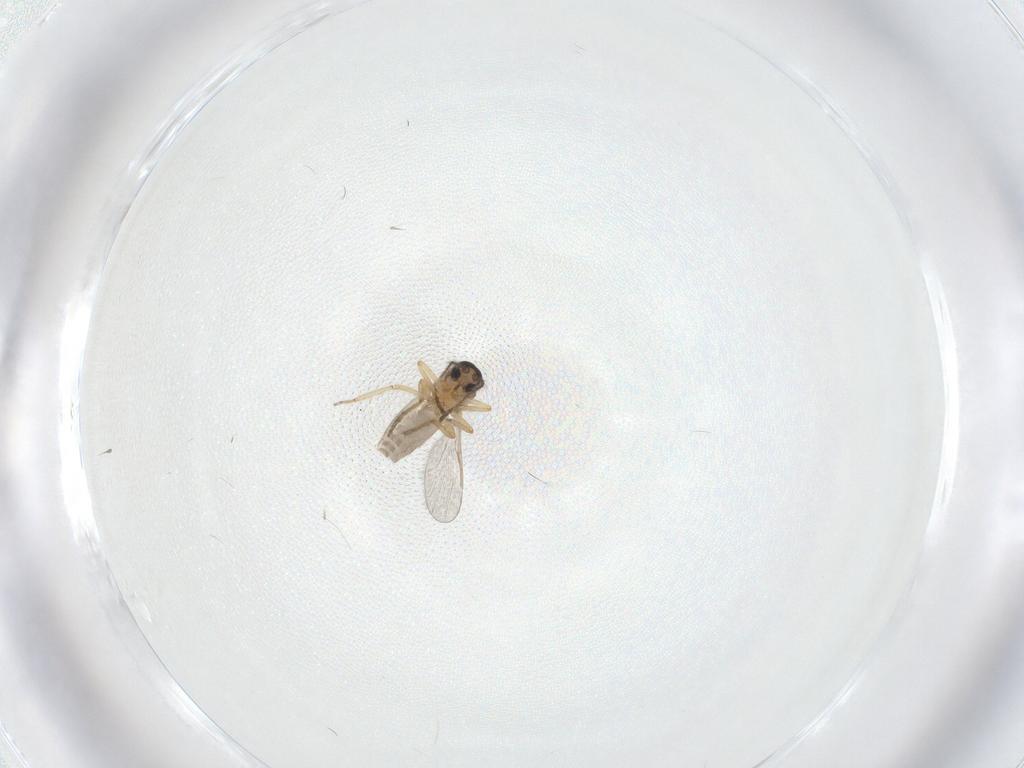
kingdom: Animalia
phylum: Arthropoda
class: Insecta
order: Diptera
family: Ceratopogonidae
